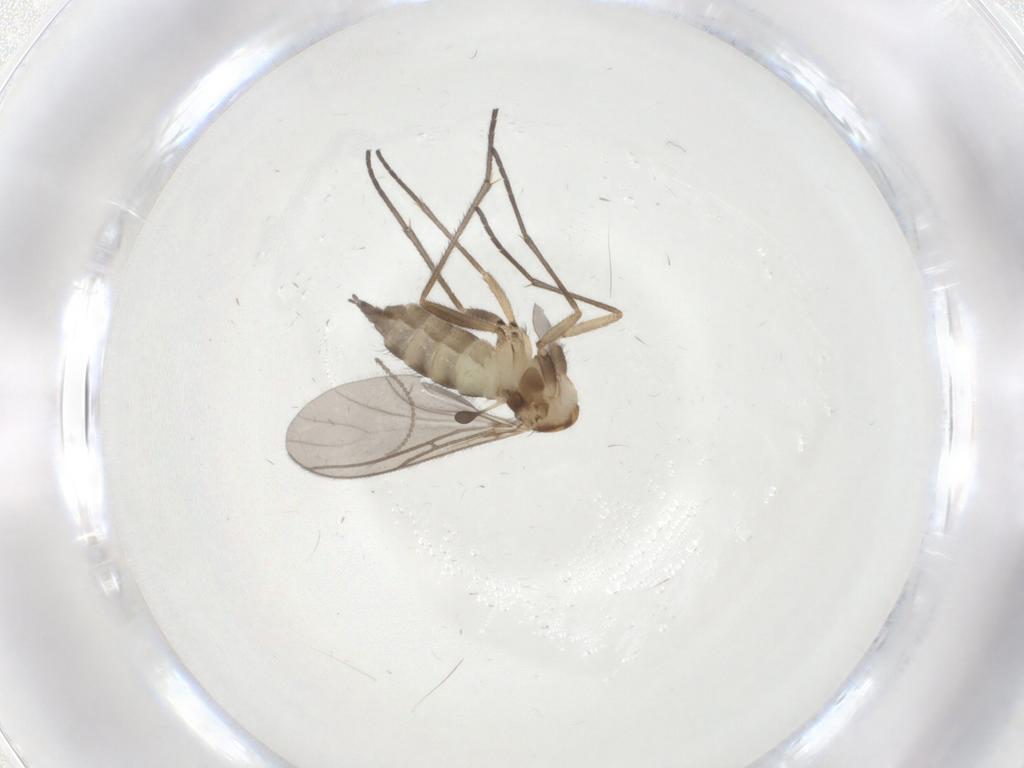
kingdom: Animalia
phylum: Arthropoda
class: Insecta
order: Diptera
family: Sciaridae
